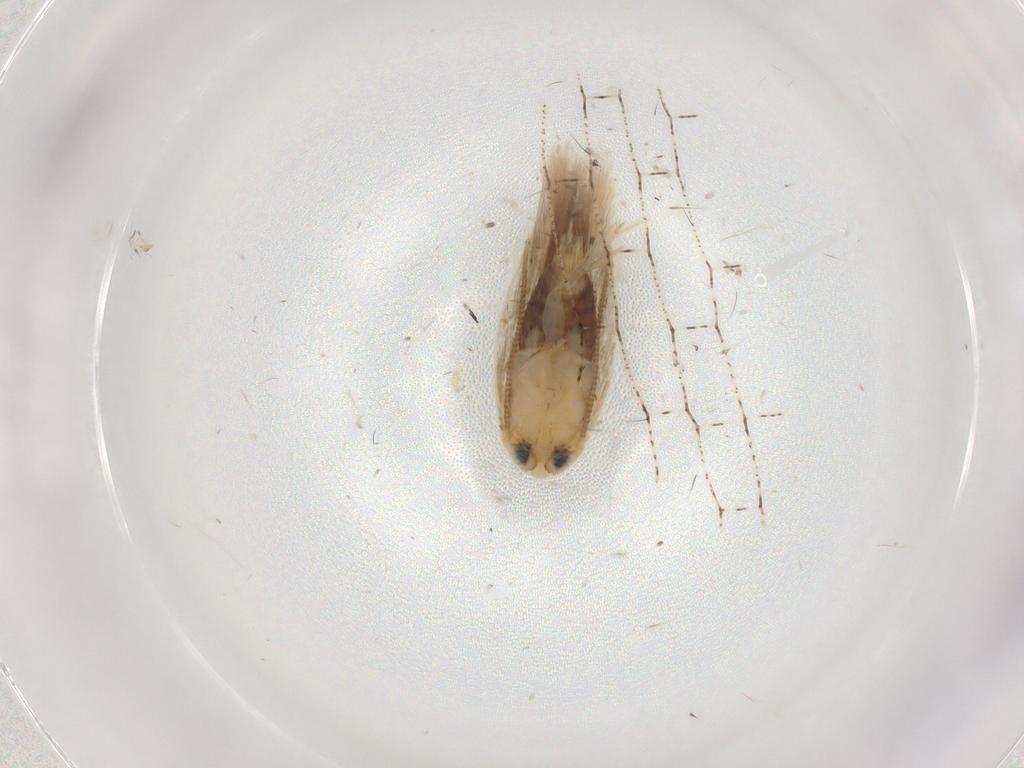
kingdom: Animalia
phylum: Arthropoda
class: Insecta
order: Lepidoptera
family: Opostegidae
